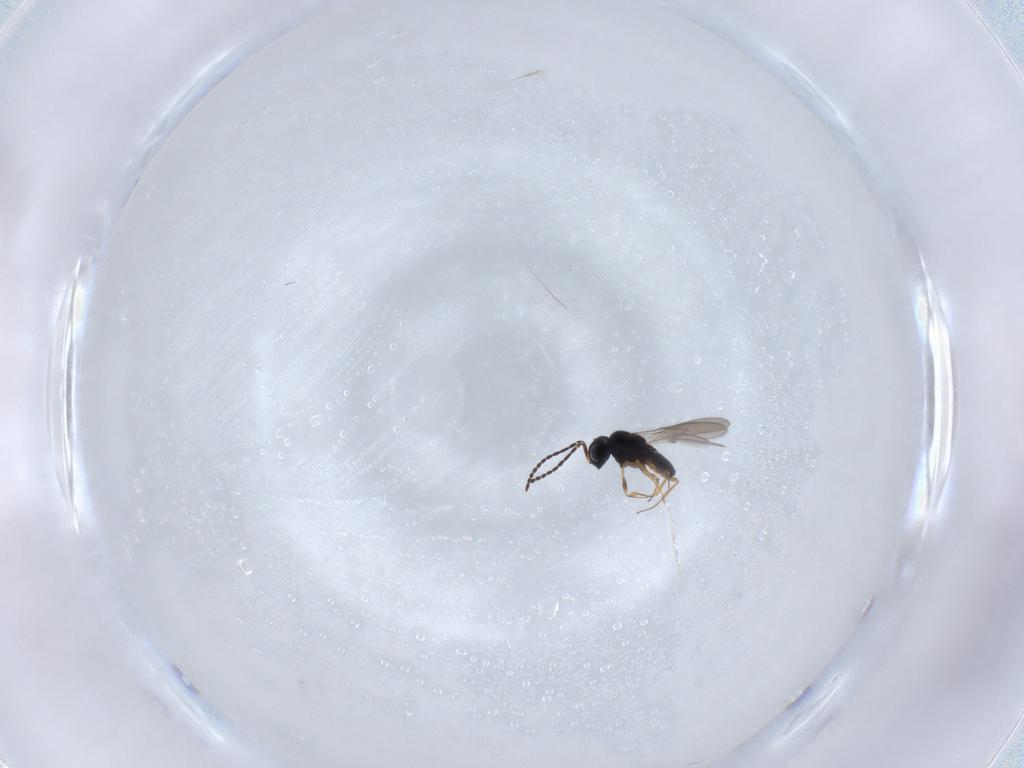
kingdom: Animalia
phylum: Arthropoda
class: Insecta
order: Hymenoptera
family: Scelionidae
